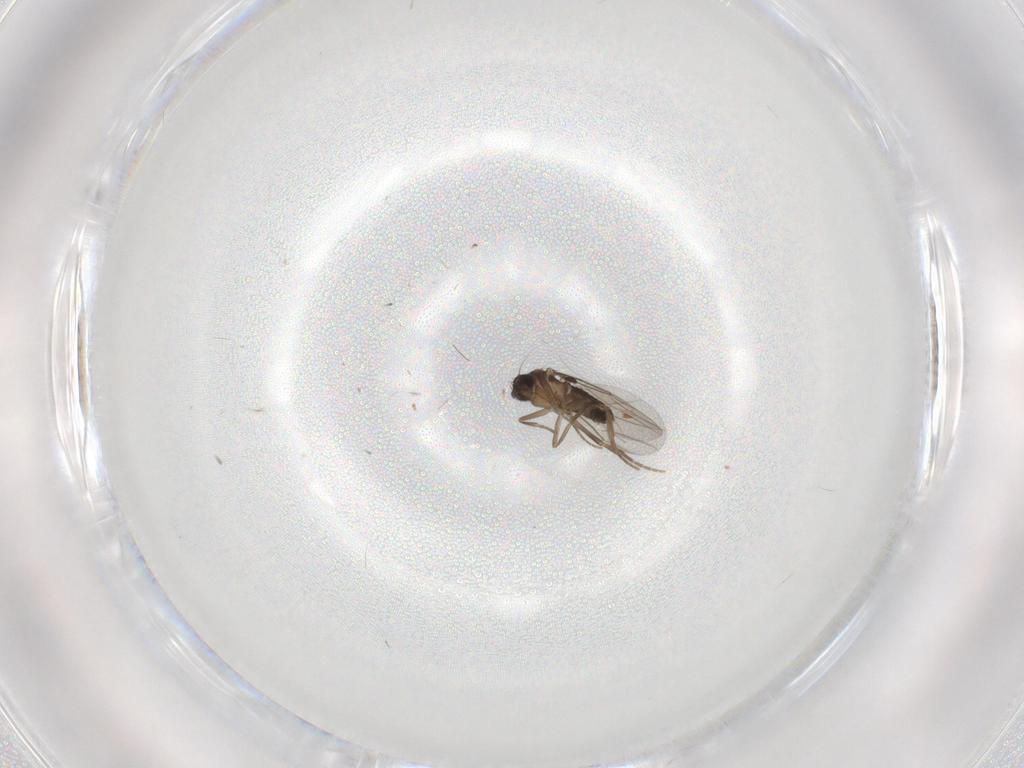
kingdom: Animalia
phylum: Arthropoda
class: Insecta
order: Diptera
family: Phoridae
